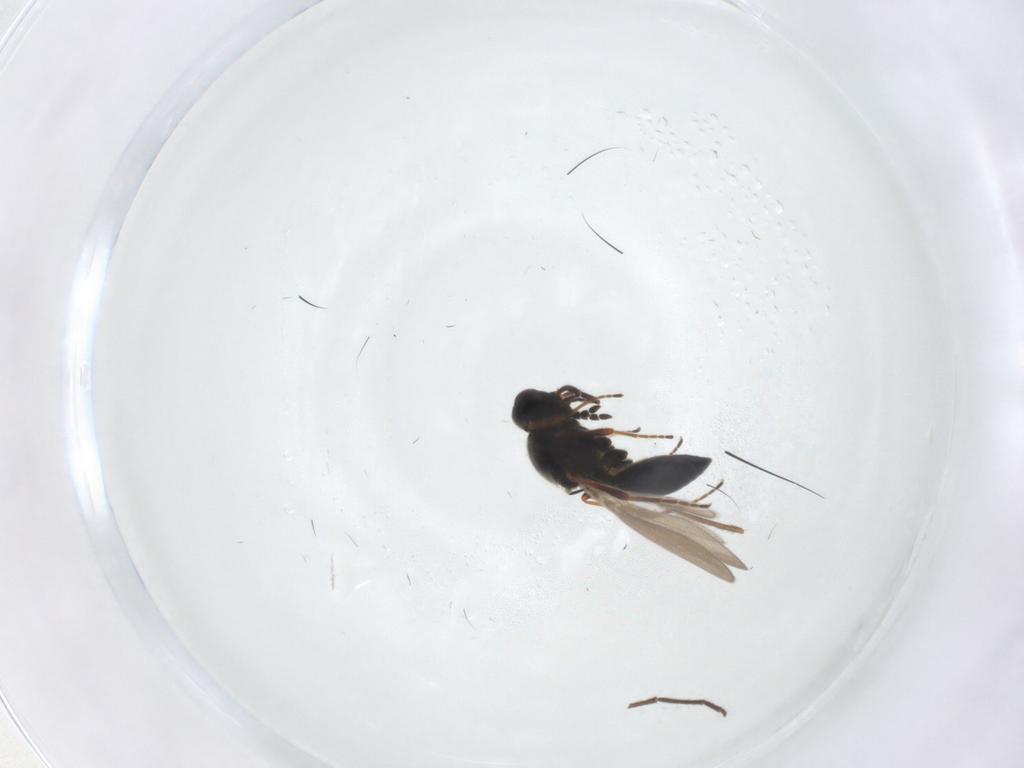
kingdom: Animalia
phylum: Arthropoda
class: Insecta
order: Hymenoptera
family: Platygastridae
